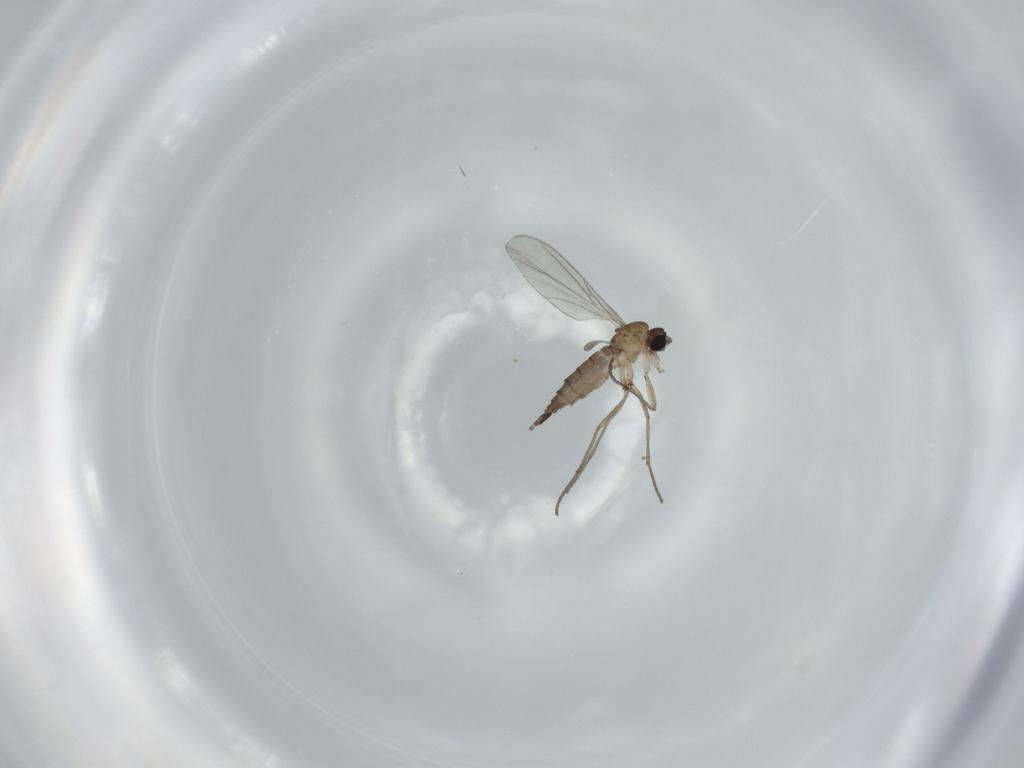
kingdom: Animalia
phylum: Arthropoda
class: Insecta
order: Diptera
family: Sciaridae
